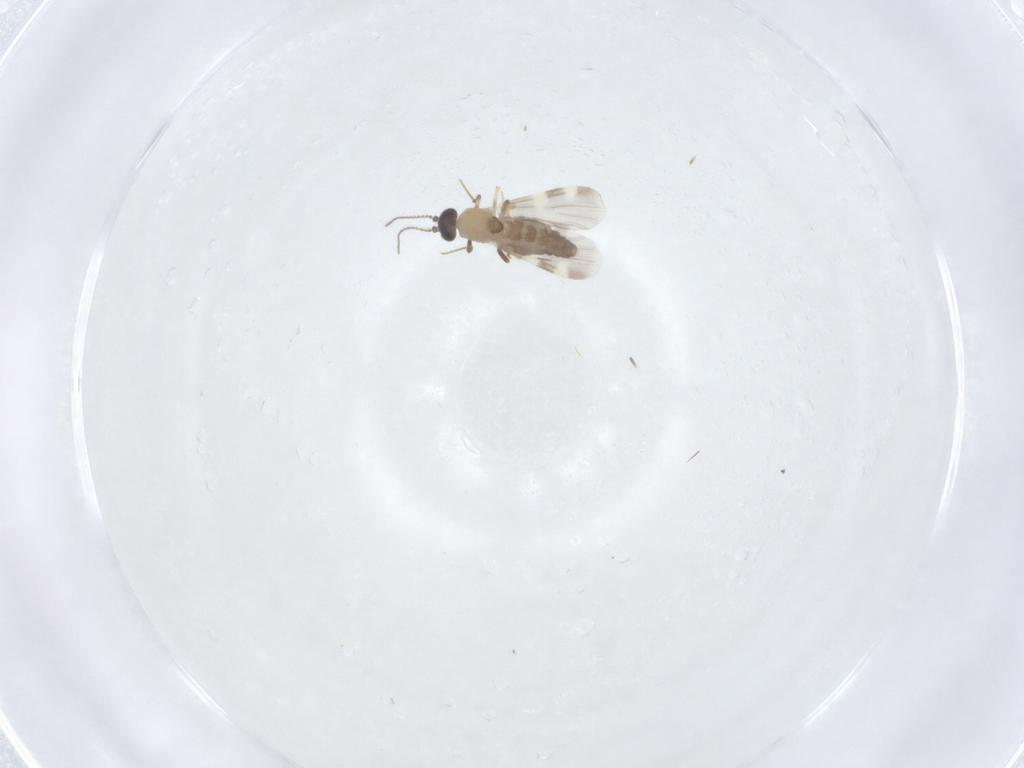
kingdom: Animalia
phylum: Arthropoda
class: Insecta
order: Diptera
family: Ceratopogonidae
